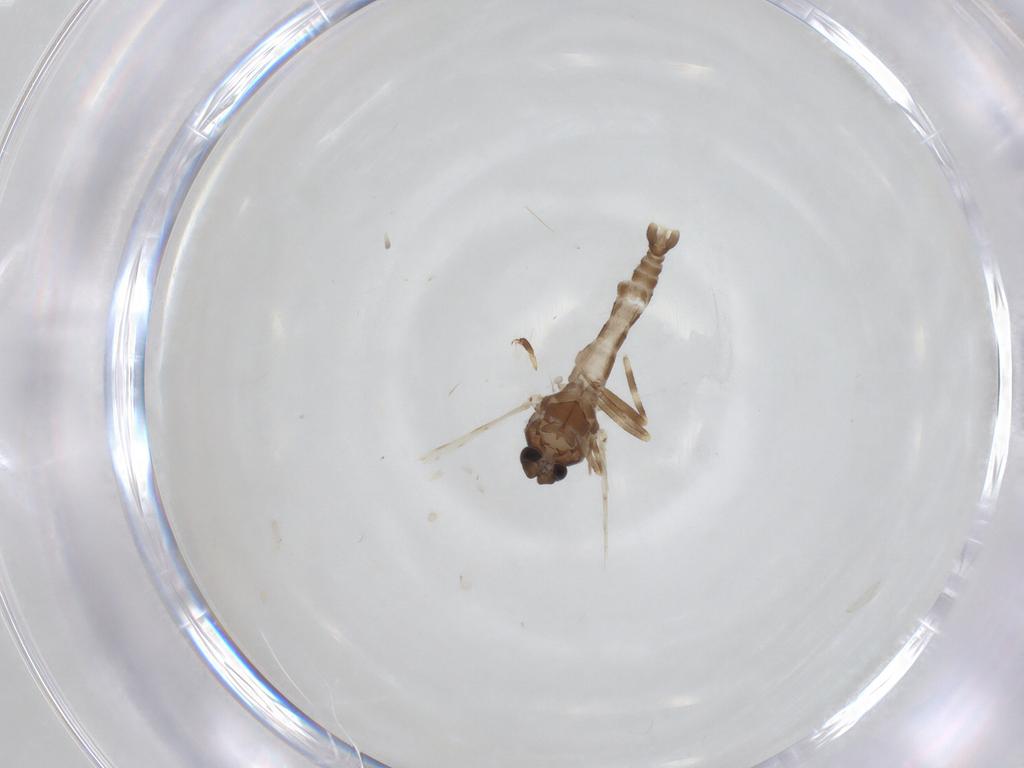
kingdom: Animalia
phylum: Arthropoda
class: Insecta
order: Diptera
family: Ceratopogonidae
